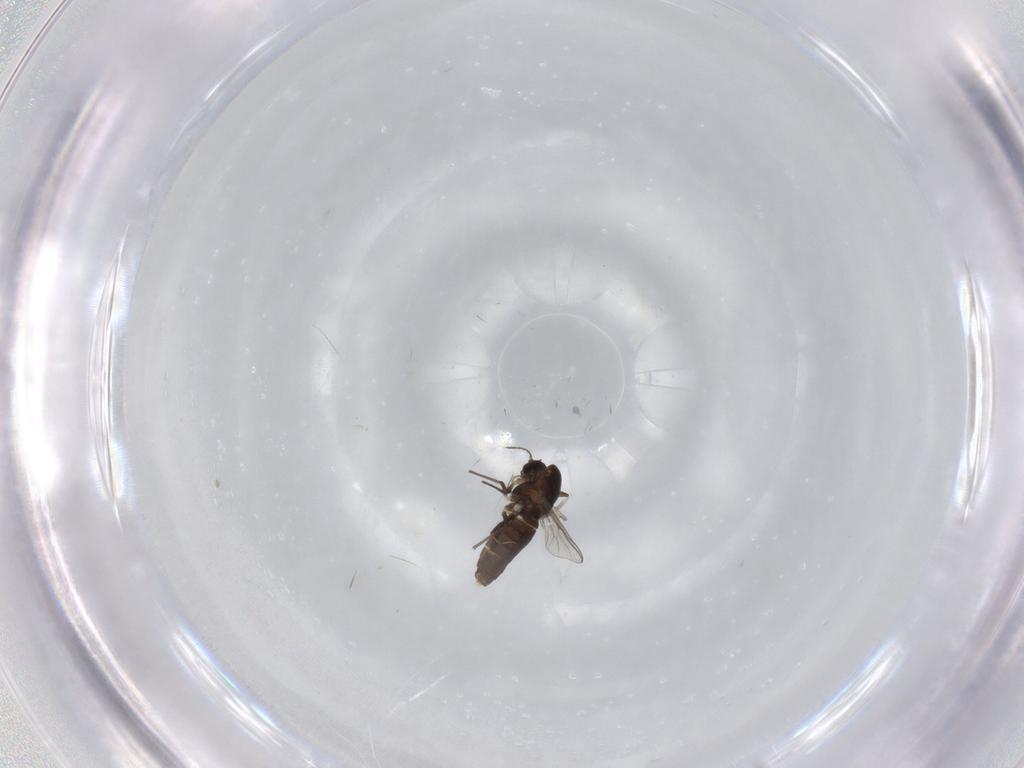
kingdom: Animalia
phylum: Arthropoda
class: Insecta
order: Diptera
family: Chironomidae
